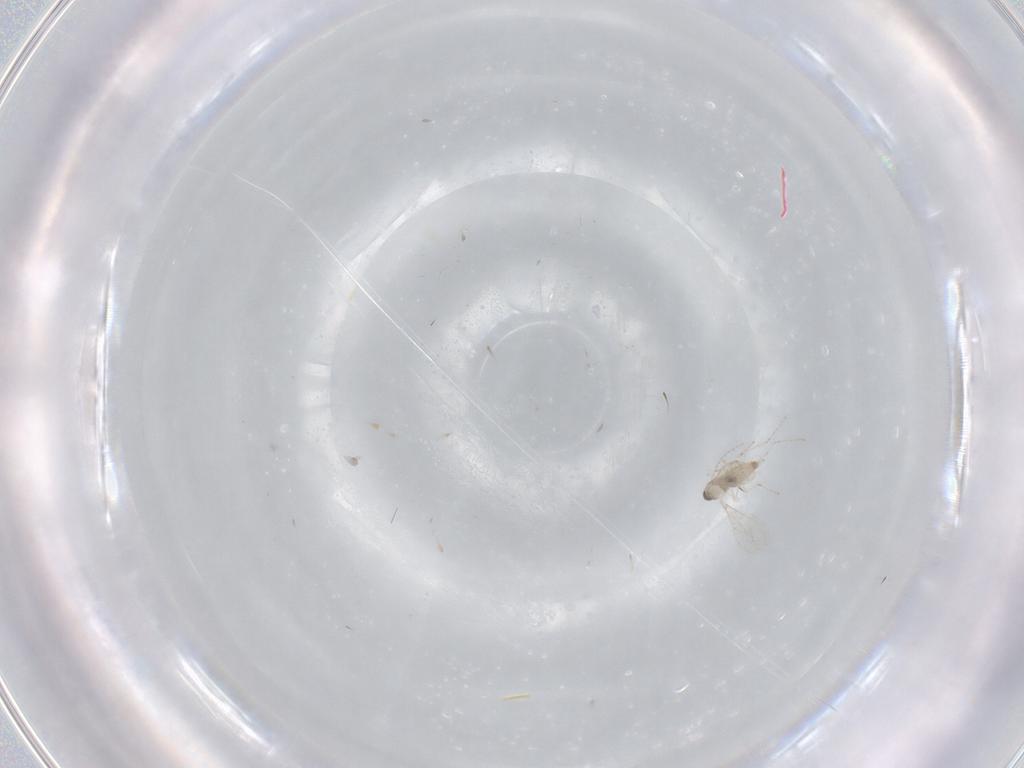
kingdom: Animalia
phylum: Arthropoda
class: Insecta
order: Diptera
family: Cecidomyiidae
